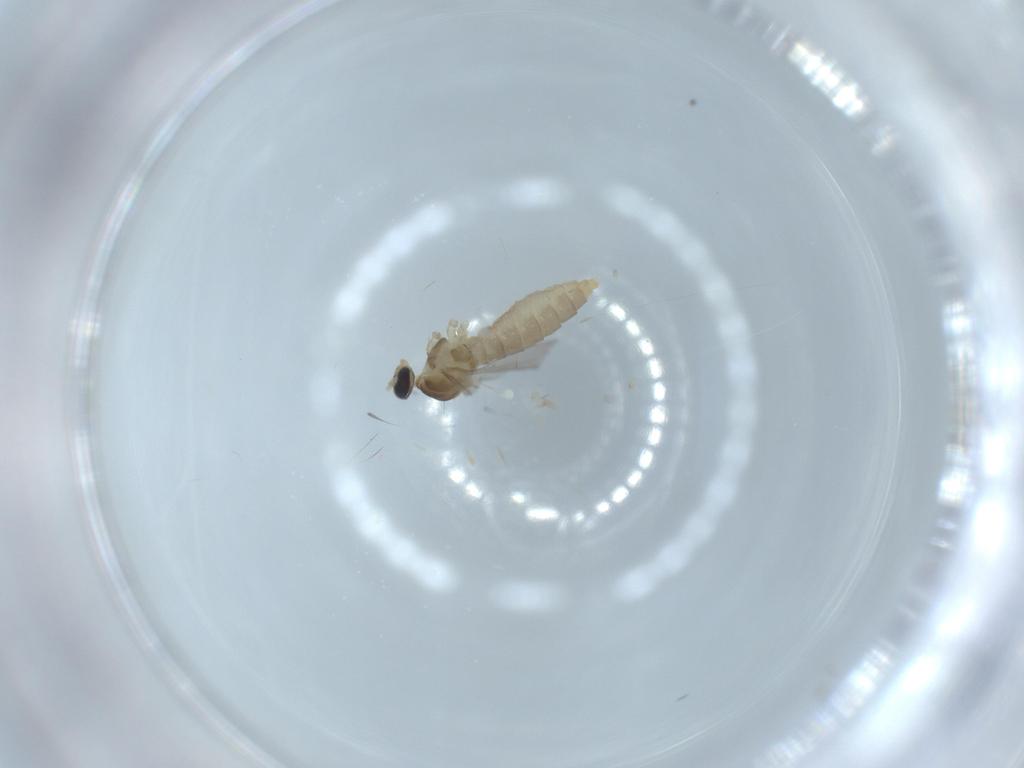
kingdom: Animalia
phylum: Arthropoda
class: Insecta
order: Diptera
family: Cecidomyiidae
